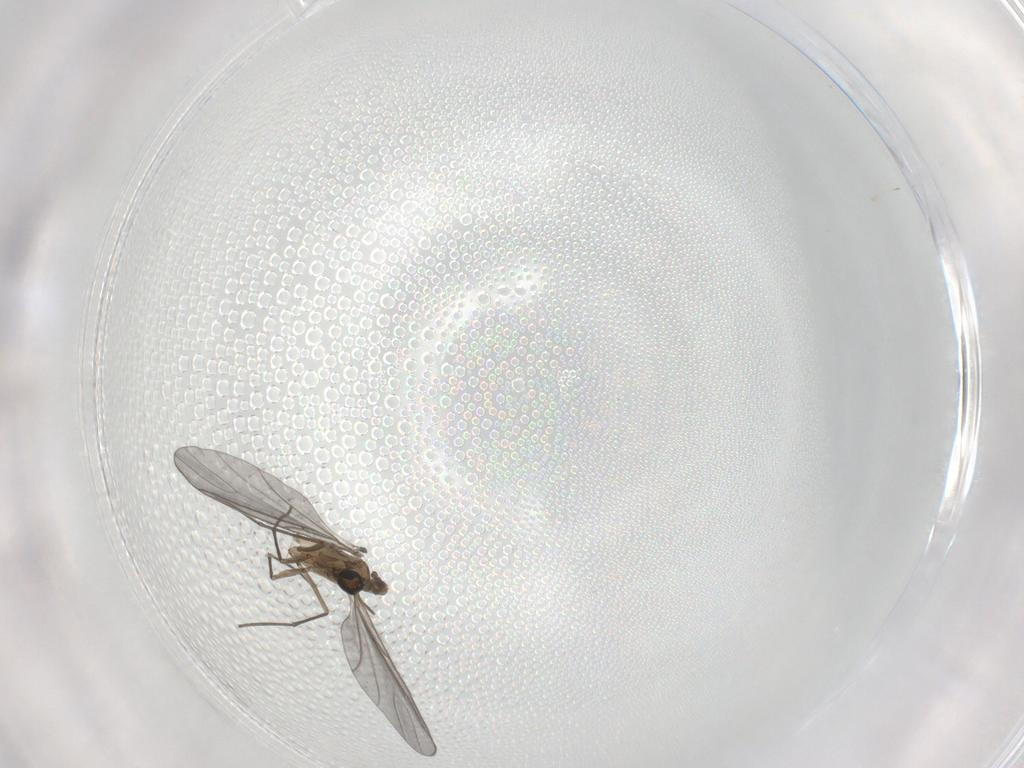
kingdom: Animalia
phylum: Arthropoda
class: Insecta
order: Diptera
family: Sciaridae
